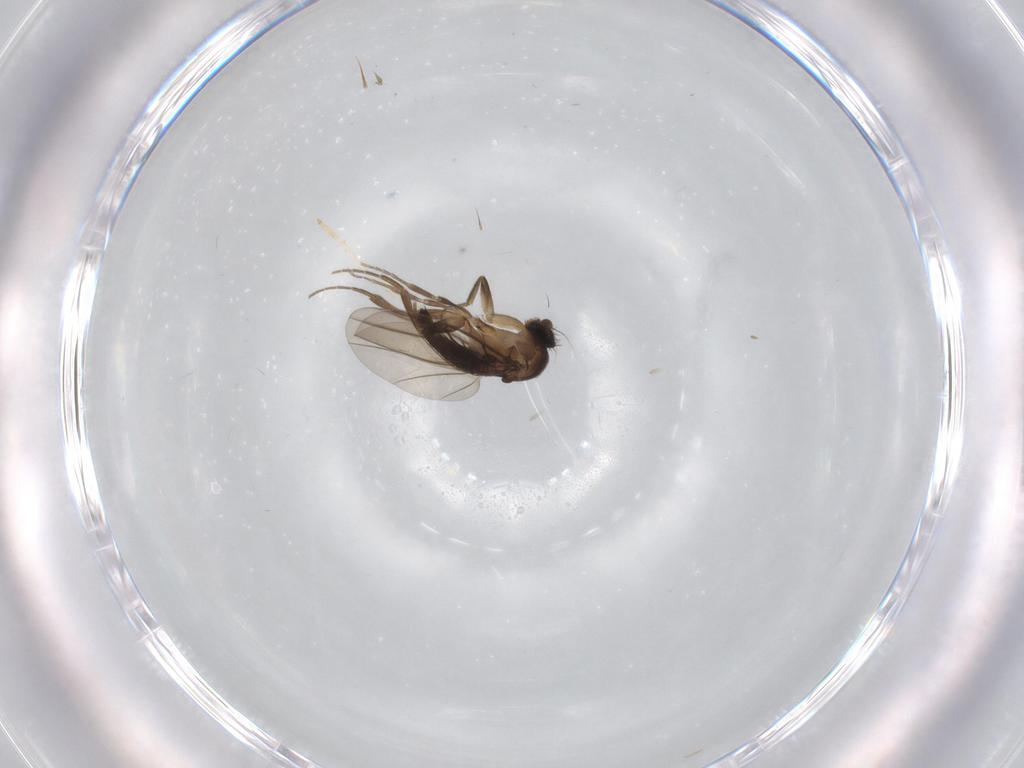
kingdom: Animalia
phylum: Arthropoda
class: Insecta
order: Diptera
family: Phoridae
